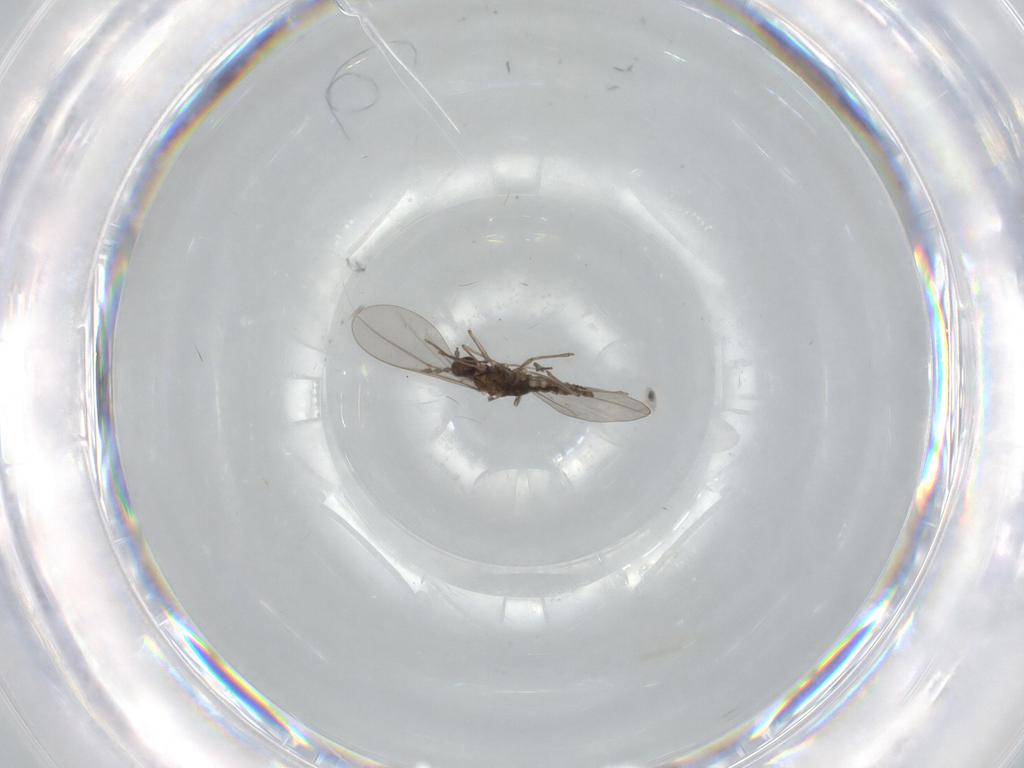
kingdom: Animalia
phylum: Arthropoda
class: Insecta
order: Diptera
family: Cecidomyiidae
